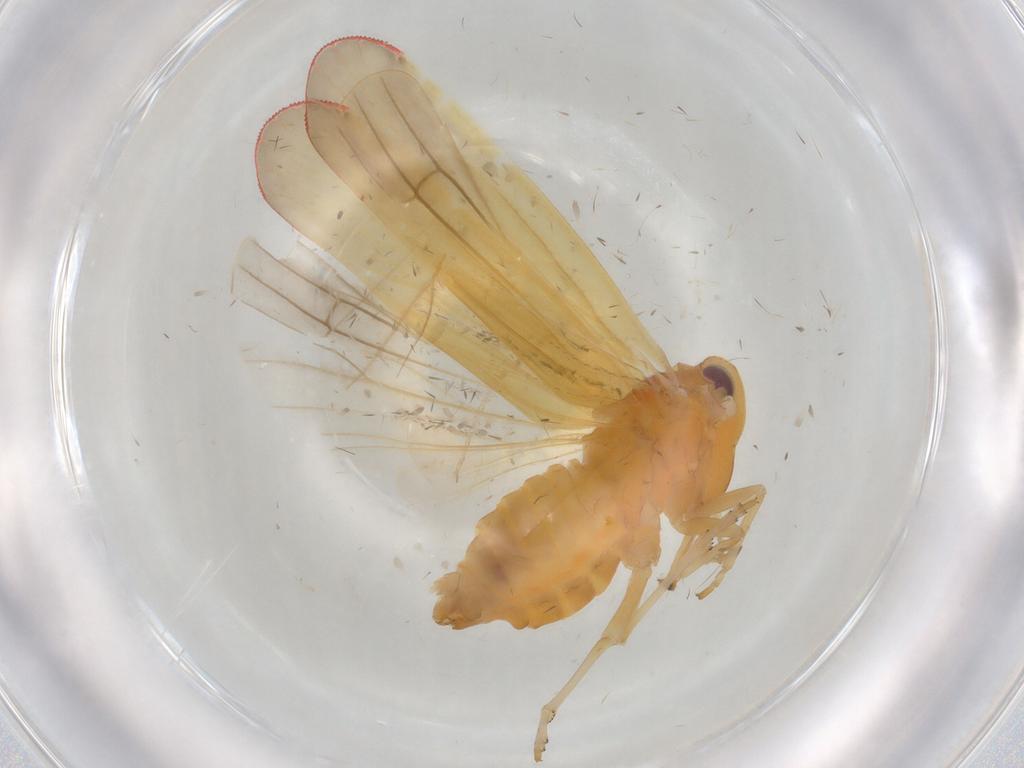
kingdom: Animalia
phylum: Arthropoda
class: Insecta
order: Hemiptera
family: Derbidae
